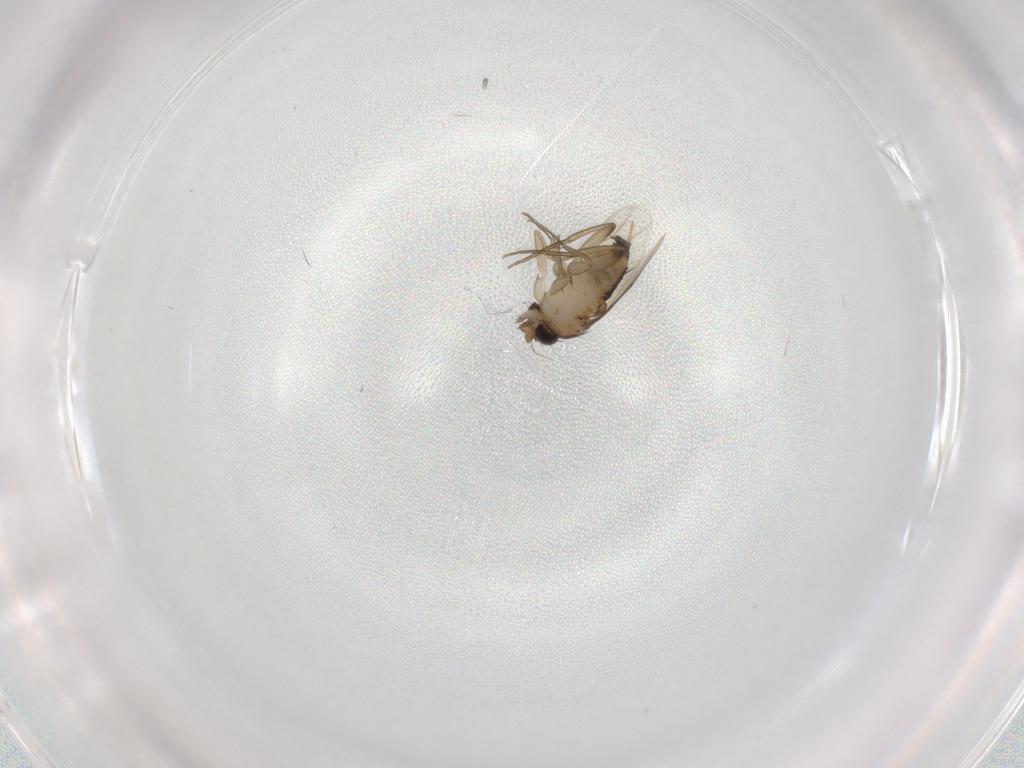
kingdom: Animalia
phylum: Arthropoda
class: Insecta
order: Diptera
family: Phoridae
